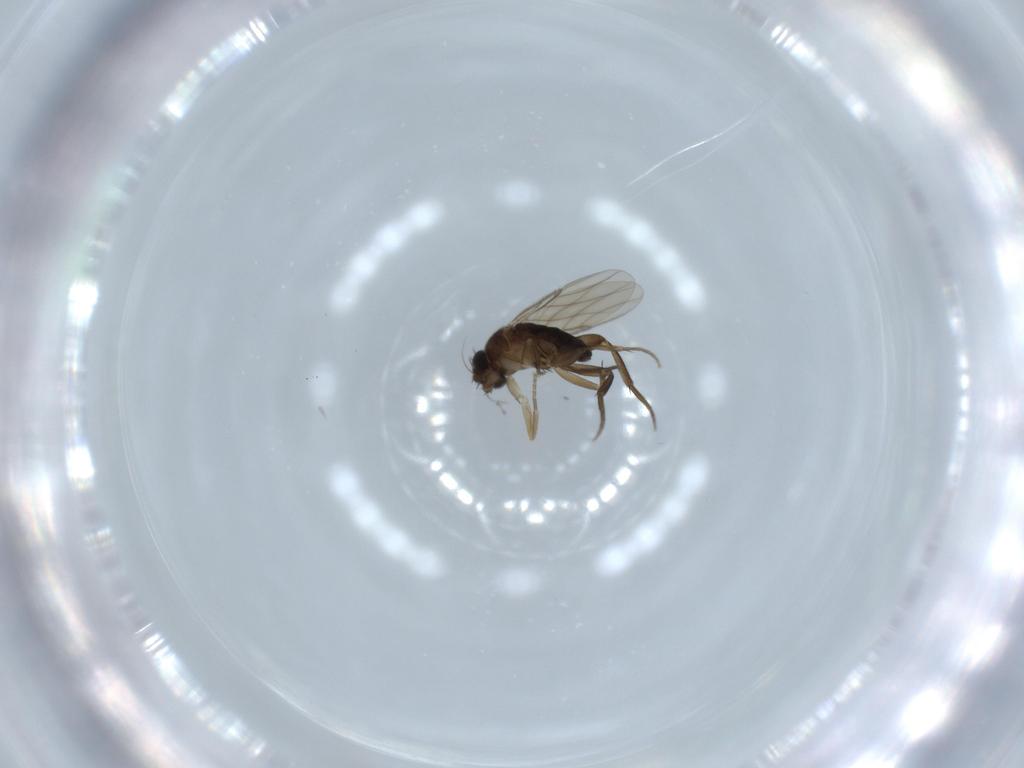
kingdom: Animalia
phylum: Arthropoda
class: Insecta
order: Diptera
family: Phoridae
